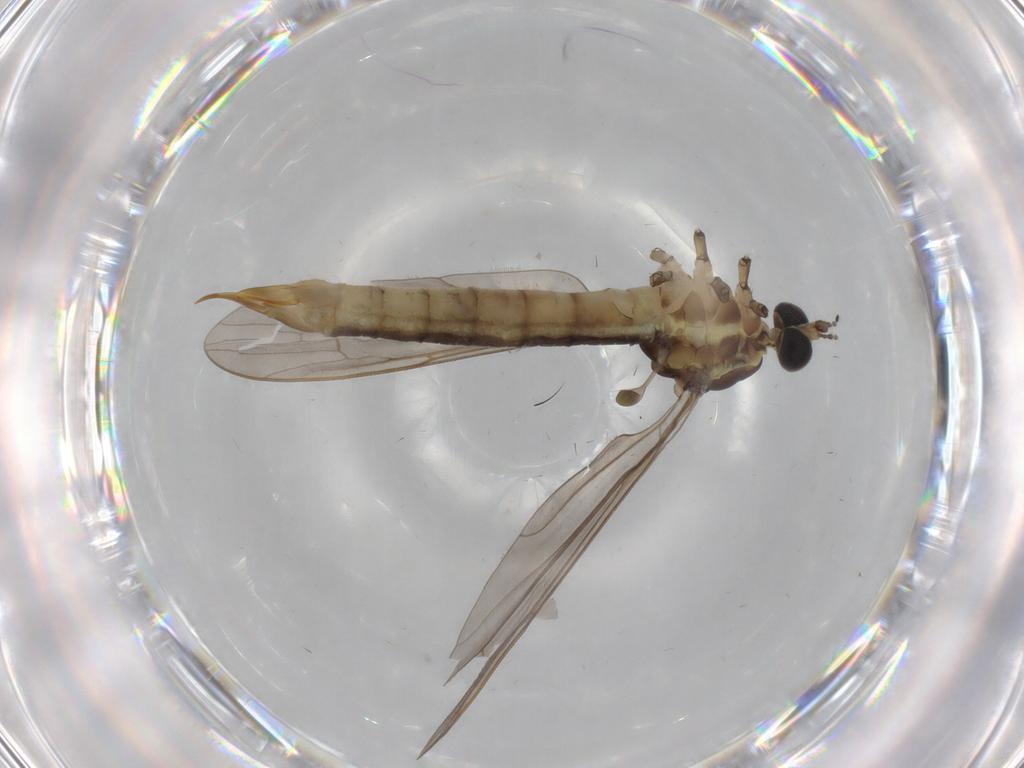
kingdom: Animalia
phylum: Arthropoda
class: Insecta
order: Diptera
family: Ceratopogonidae
